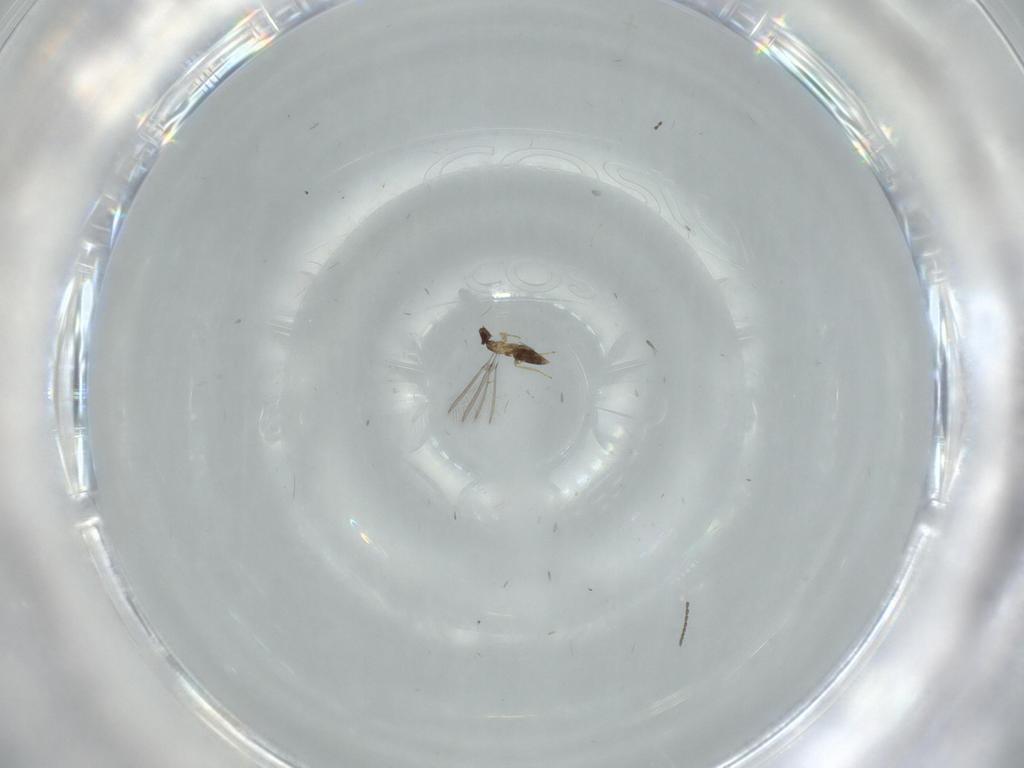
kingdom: Animalia
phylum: Arthropoda
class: Insecta
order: Hymenoptera
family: Mymaridae
